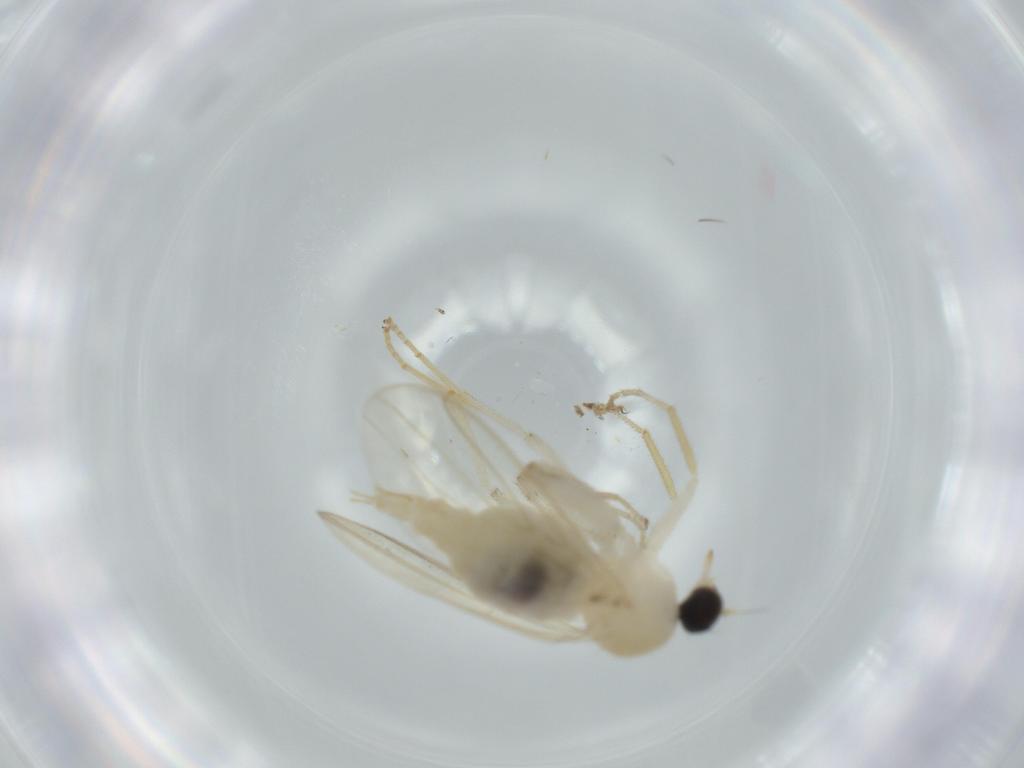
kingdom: Animalia
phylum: Arthropoda
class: Insecta
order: Diptera
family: Hybotidae
